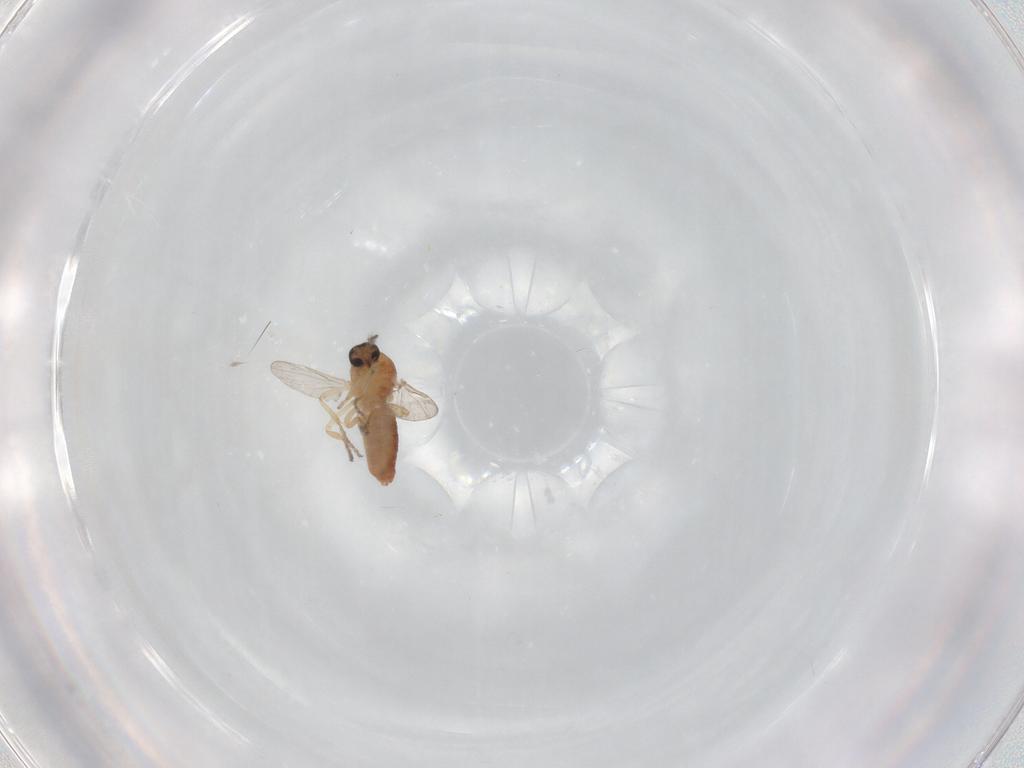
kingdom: Animalia
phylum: Arthropoda
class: Insecta
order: Diptera
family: Ceratopogonidae
